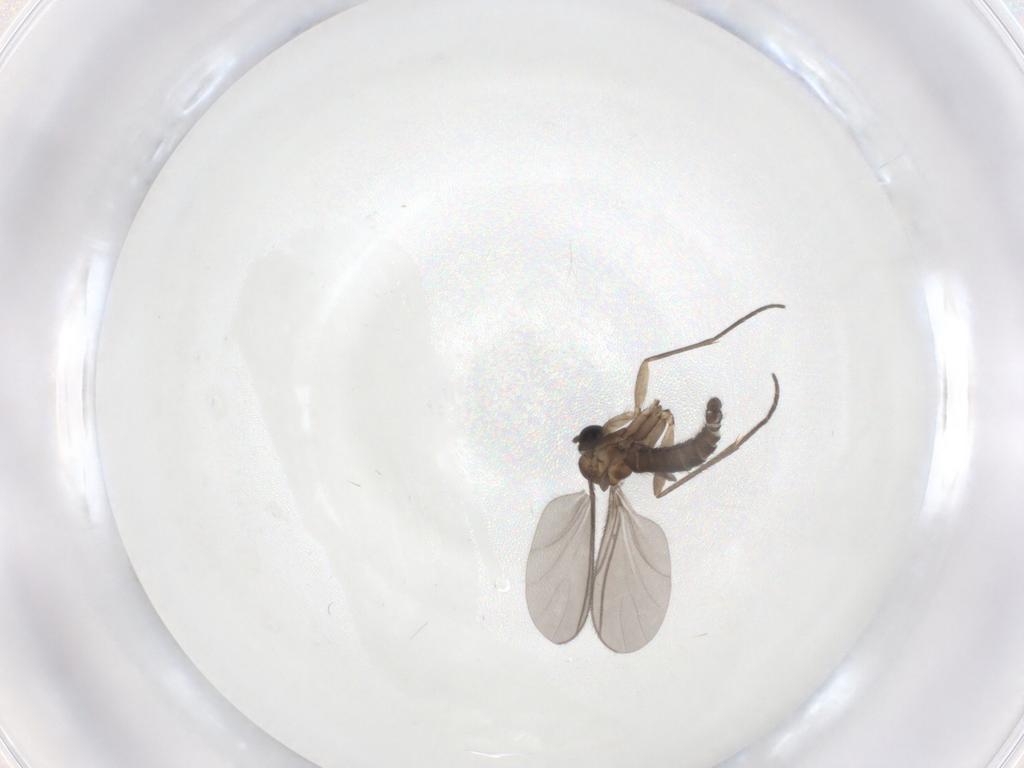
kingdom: Animalia
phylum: Arthropoda
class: Insecta
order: Diptera
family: Sciaridae
